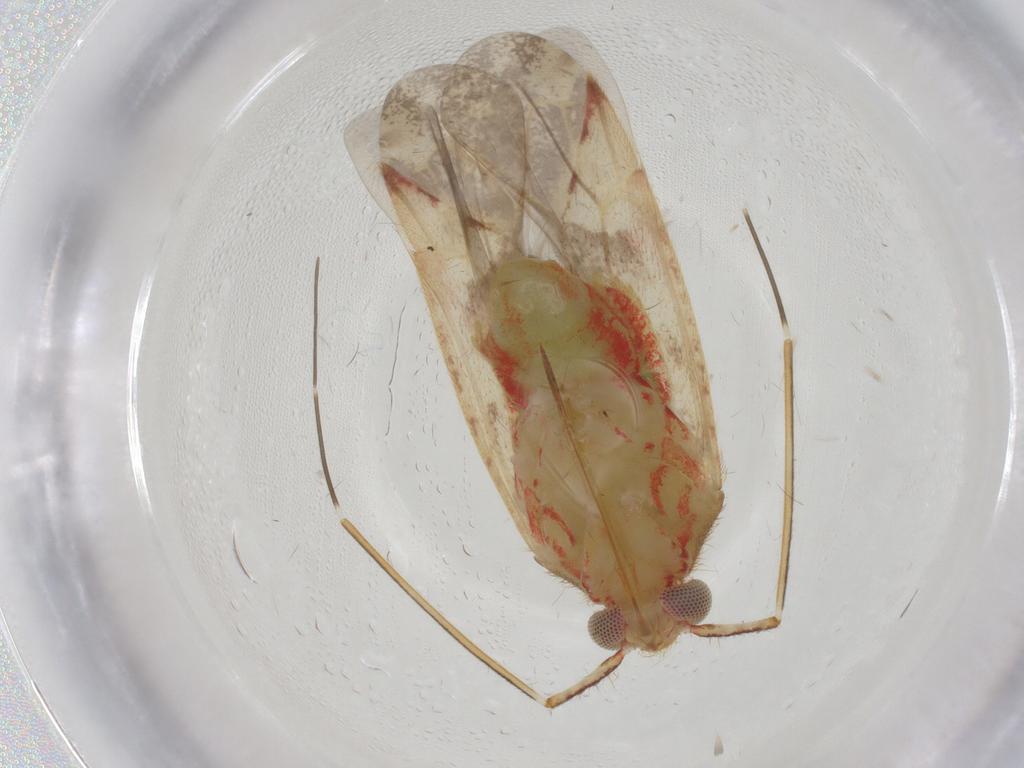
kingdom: Animalia
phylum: Arthropoda
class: Insecta
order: Hemiptera
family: Miridae
